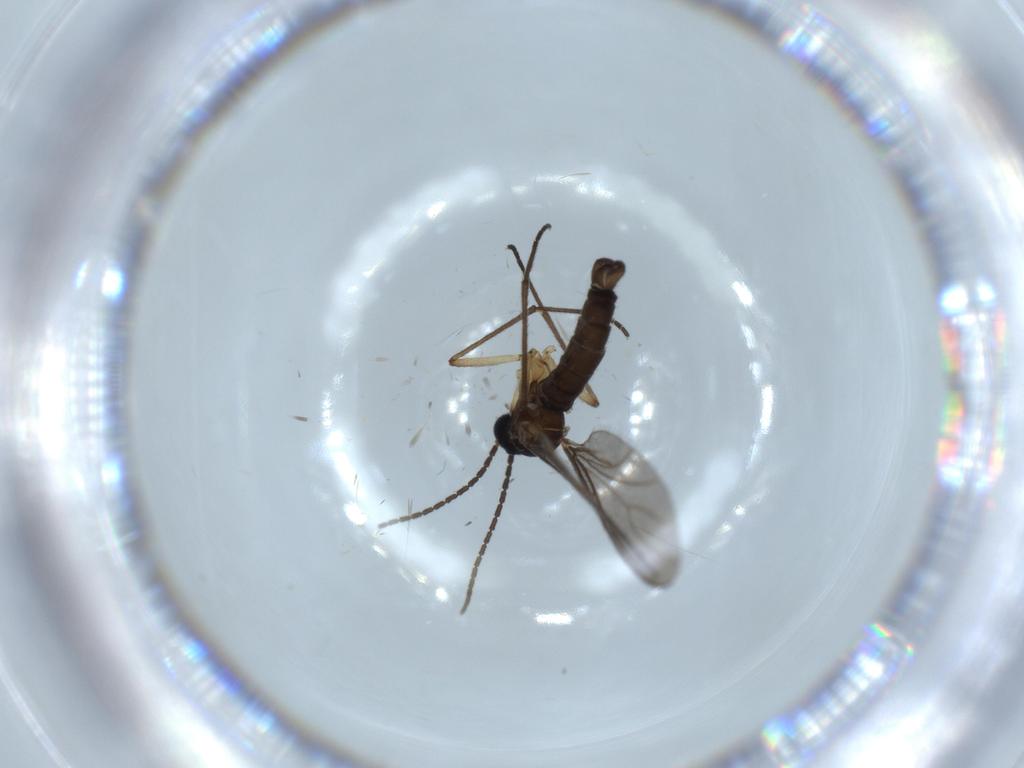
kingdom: Animalia
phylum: Arthropoda
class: Insecta
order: Diptera
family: Sciaridae
